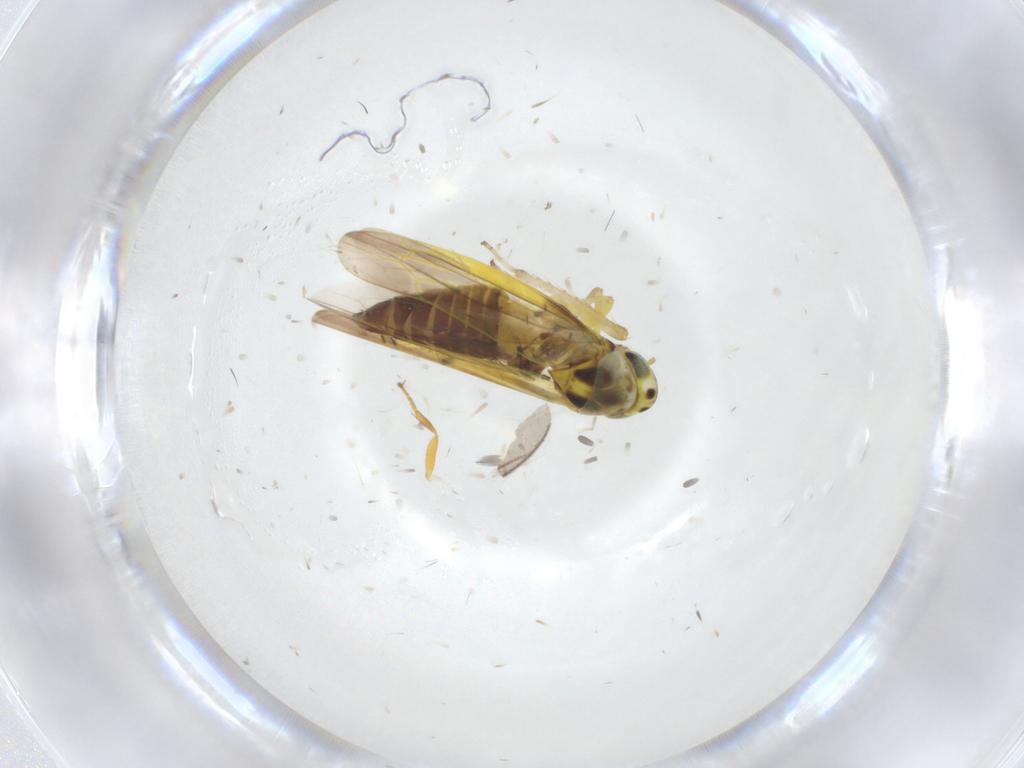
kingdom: Animalia
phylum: Arthropoda
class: Insecta
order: Hemiptera
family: Cicadellidae
